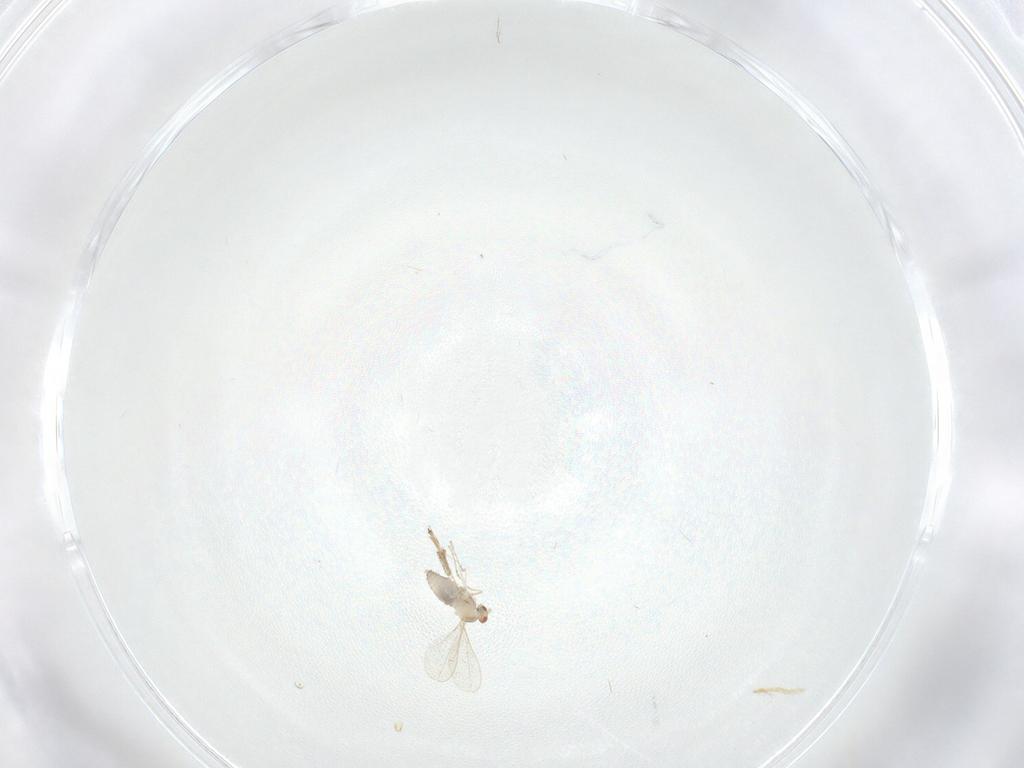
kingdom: Animalia
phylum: Arthropoda
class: Insecta
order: Diptera
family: Cecidomyiidae
